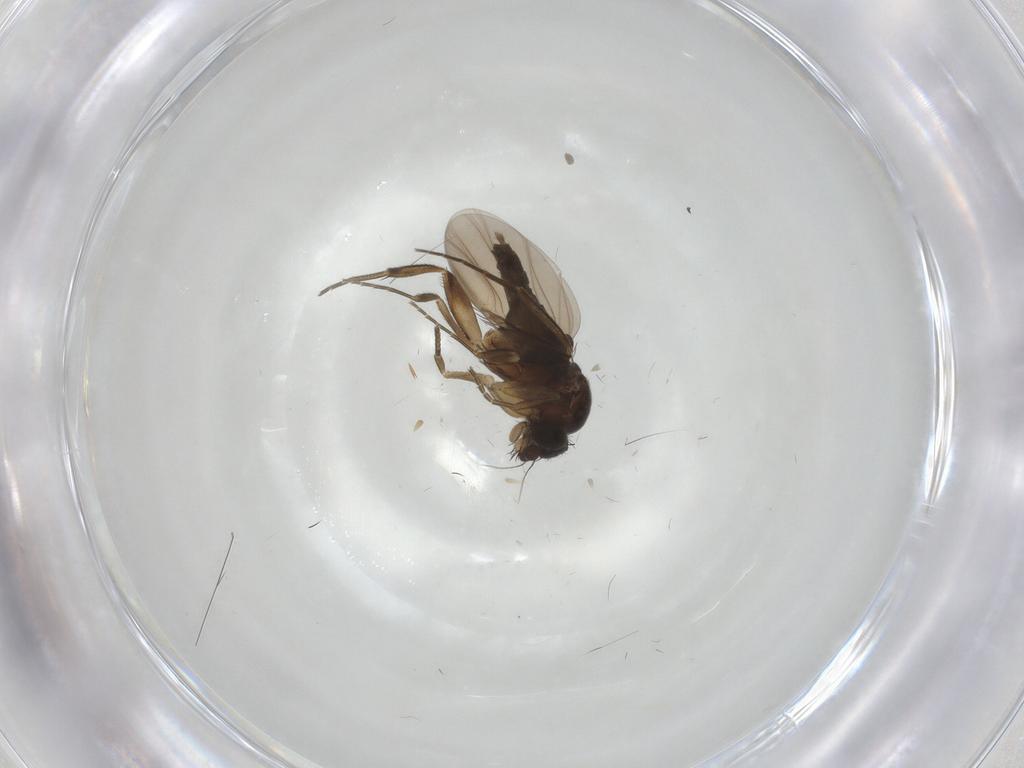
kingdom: Animalia
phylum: Arthropoda
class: Insecta
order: Diptera
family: Phoridae
